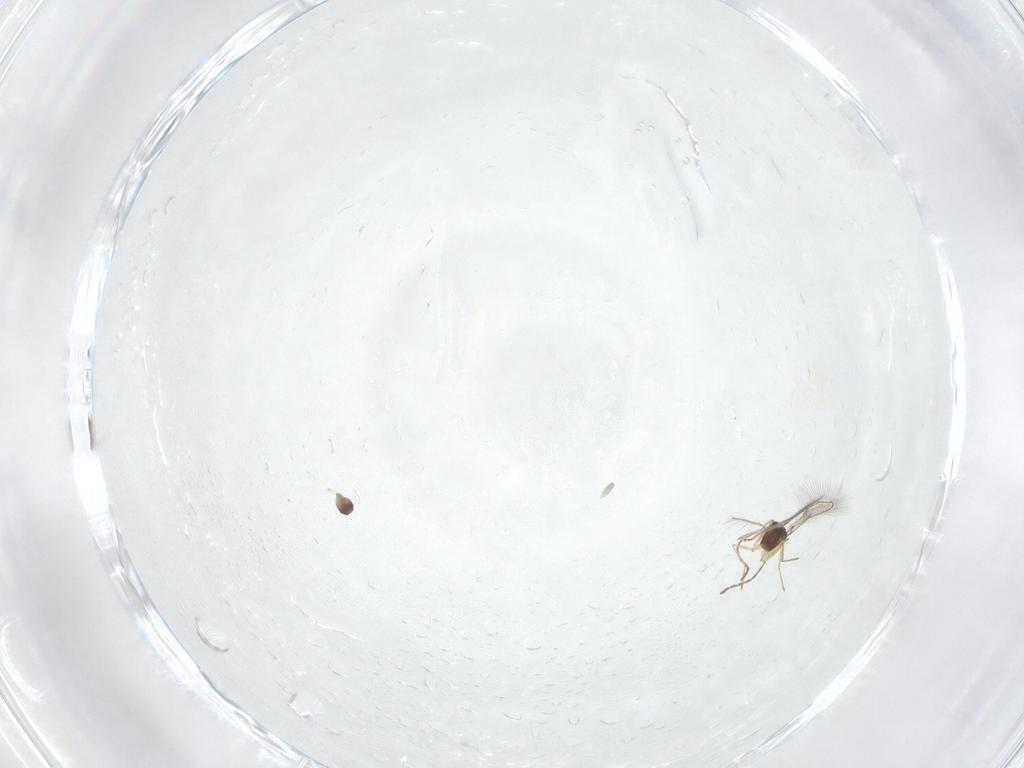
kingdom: Animalia
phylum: Arthropoda
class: Insecta
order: Hymenoptera
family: Mymaridae
